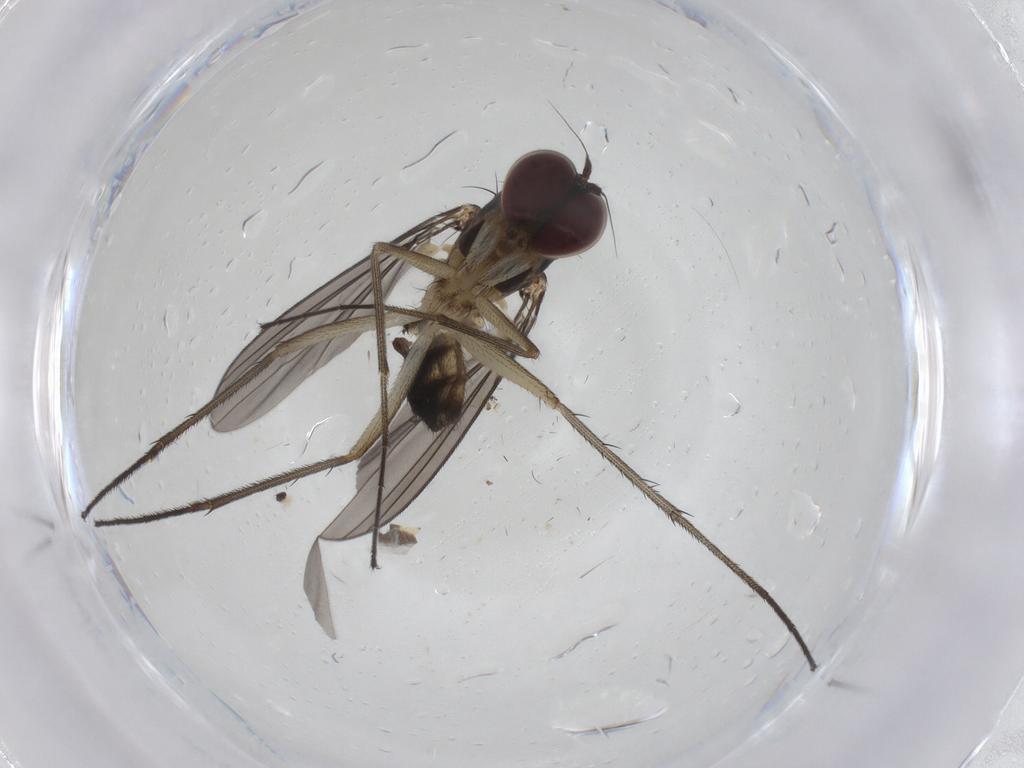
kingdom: Animalia
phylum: Arthropoda
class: Insecta
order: Diptera
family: Dolichopodidae
